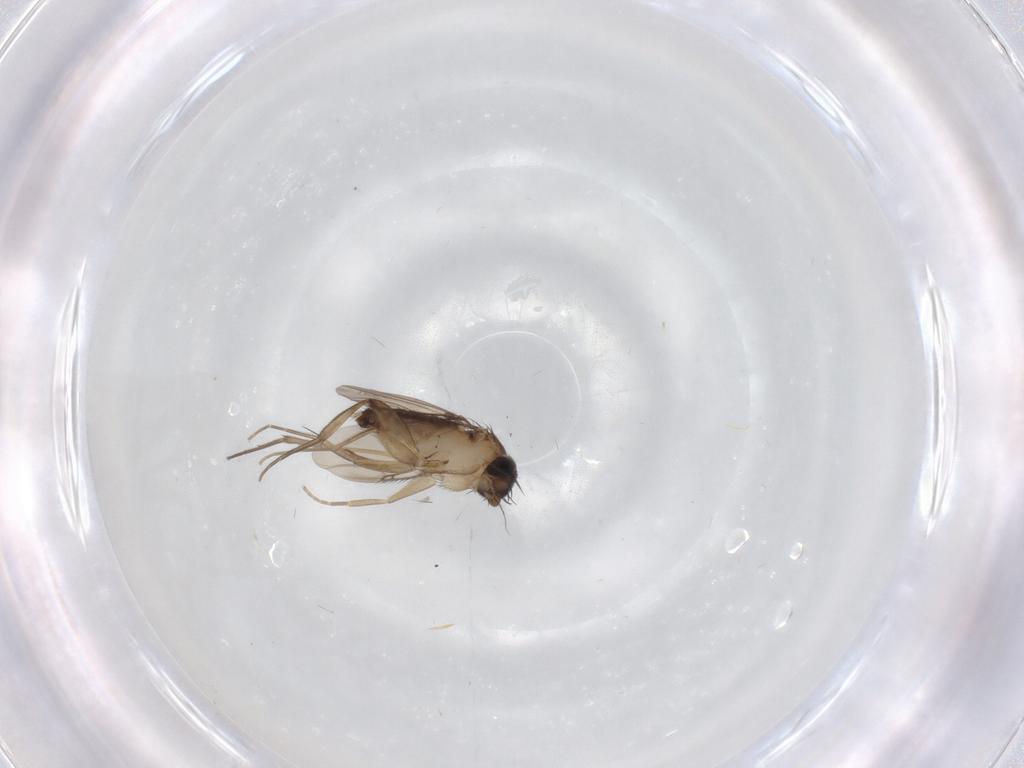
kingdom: Animalia
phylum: Arthropoda
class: Insecta
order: Diptera
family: Phoridae
